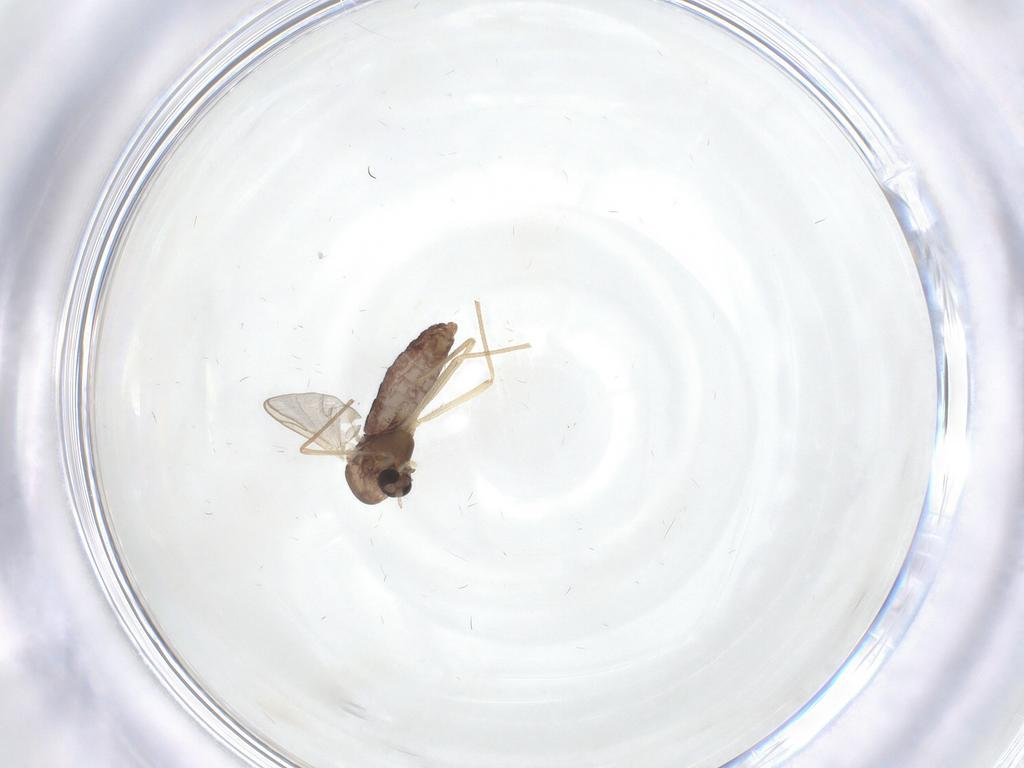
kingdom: Animalia
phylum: Arthropoda
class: Insecta
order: Diptera
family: Chironomidae
